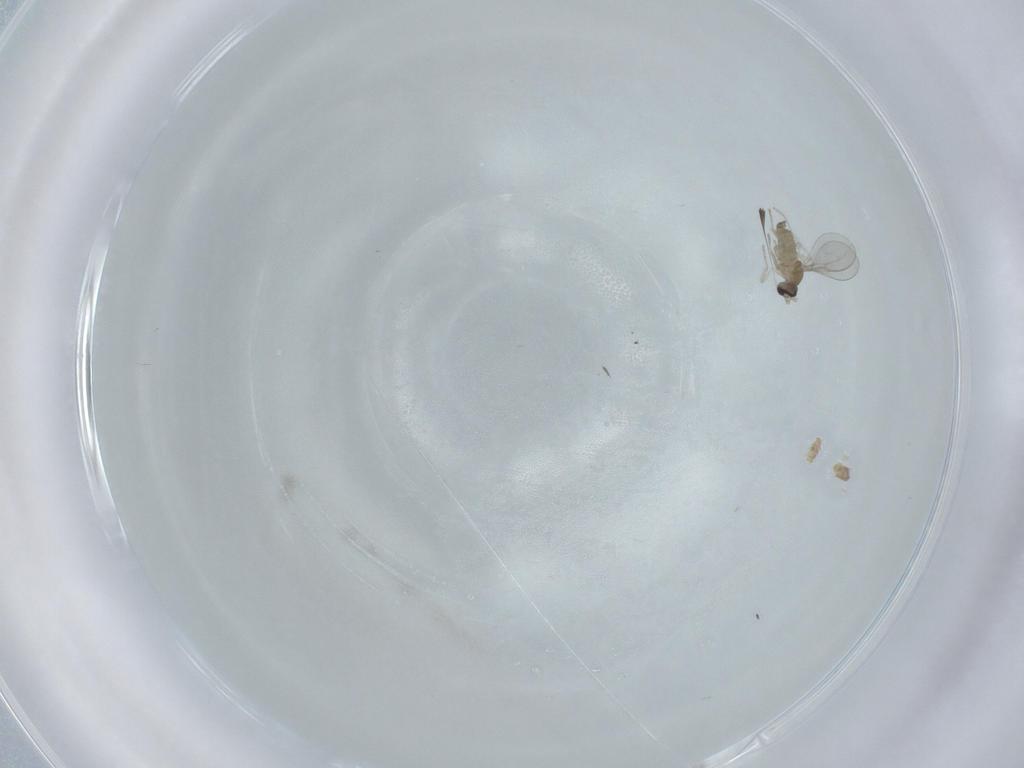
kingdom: Animalia
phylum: Arthropoda
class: Insecta
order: Diptera
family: Cecidomyiidae
